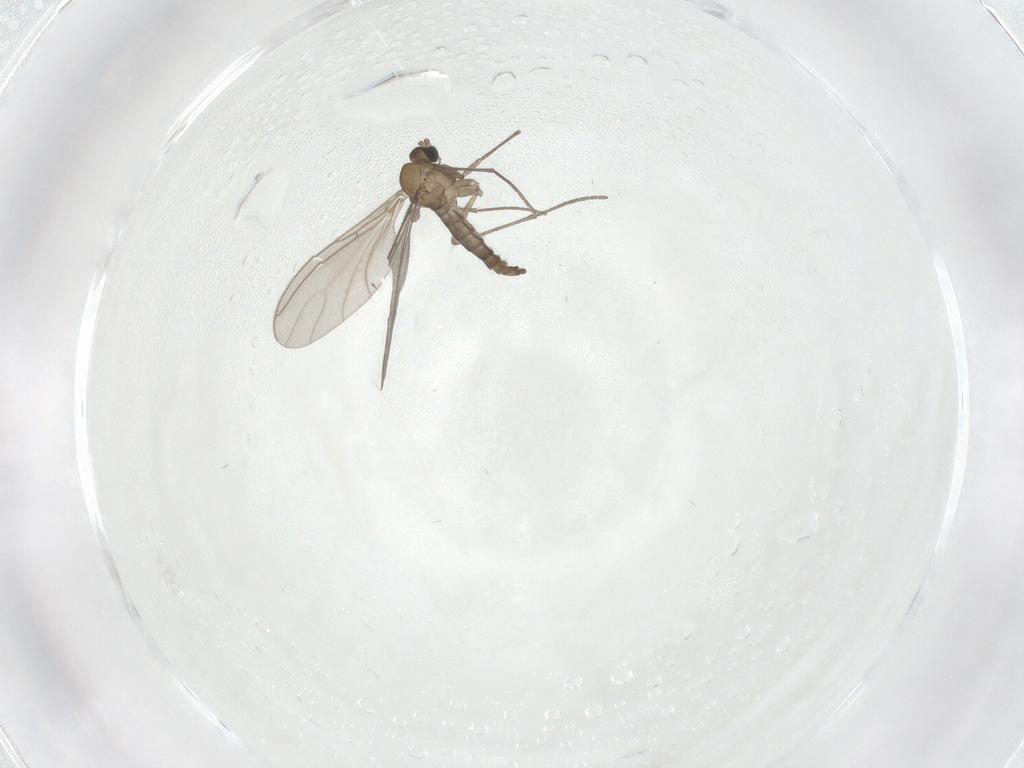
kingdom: Animalia
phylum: Arthropoda
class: Insecta
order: Diptera
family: Sciaridae
